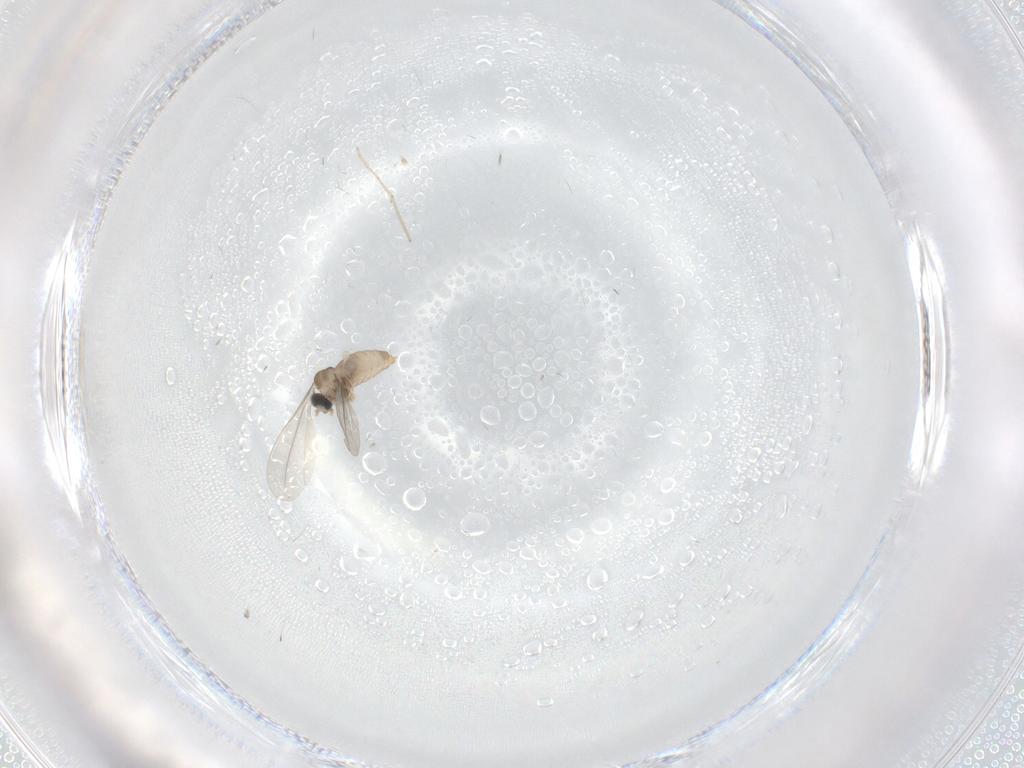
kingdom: Animalia
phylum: Arthropoda
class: Insecta
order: Diptera
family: Cecidomyiidae
